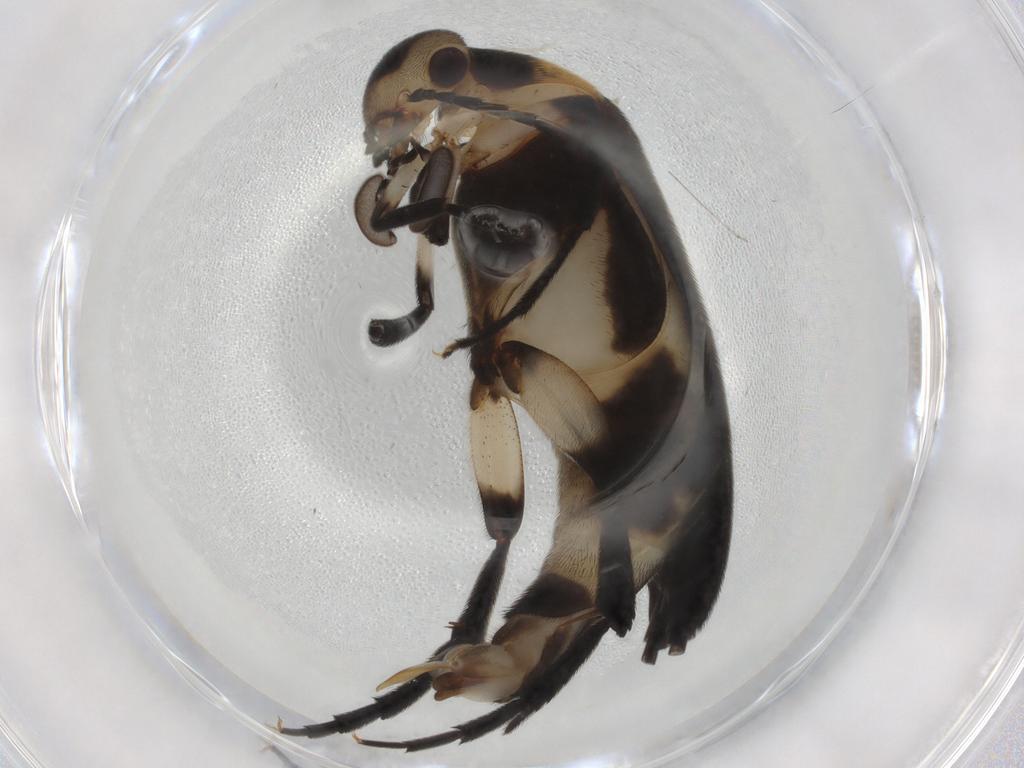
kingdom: Animalia
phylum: Arthropoda
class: Insecta
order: Coleoptera
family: Mordellidae
